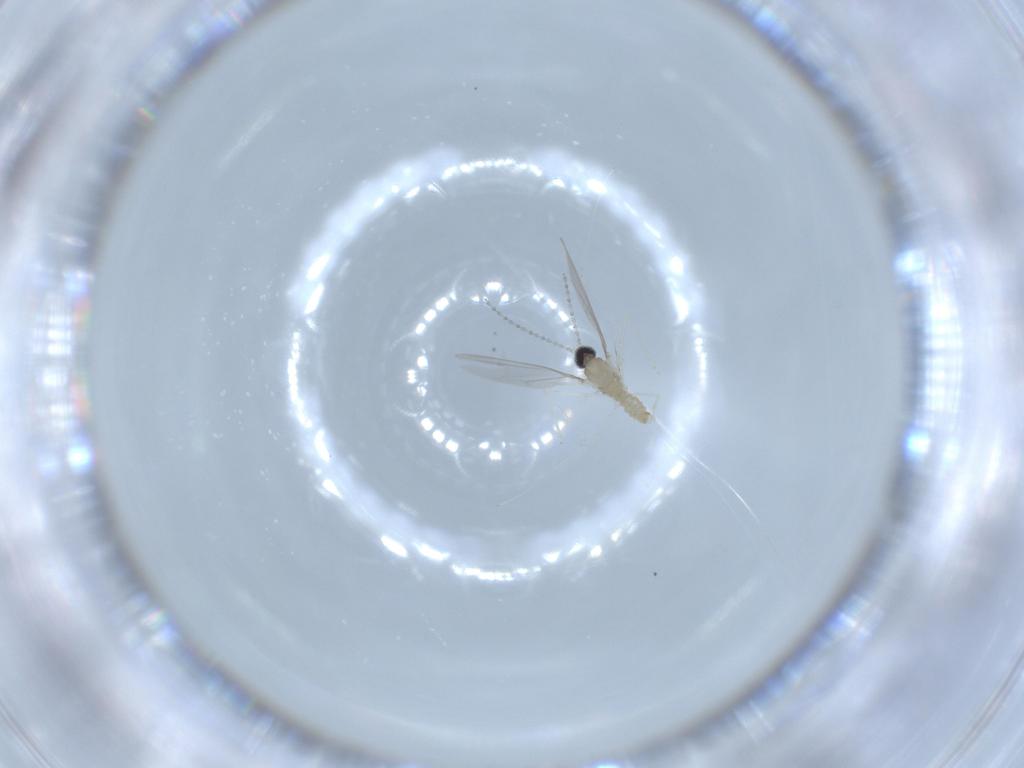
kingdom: Animalia
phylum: Arthropoda
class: Insecta
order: Diptera
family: Cecidomyiidae
